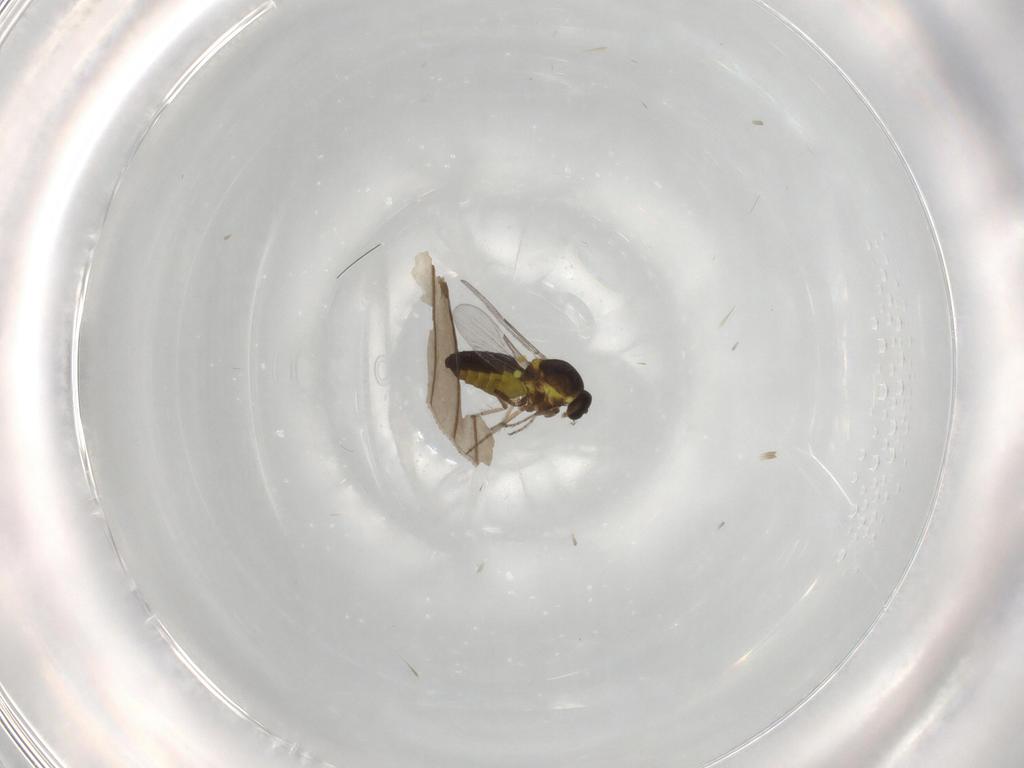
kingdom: Animalia
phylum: Arthropoda
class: Insecta
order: Diptera
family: Ceratopogonidae
